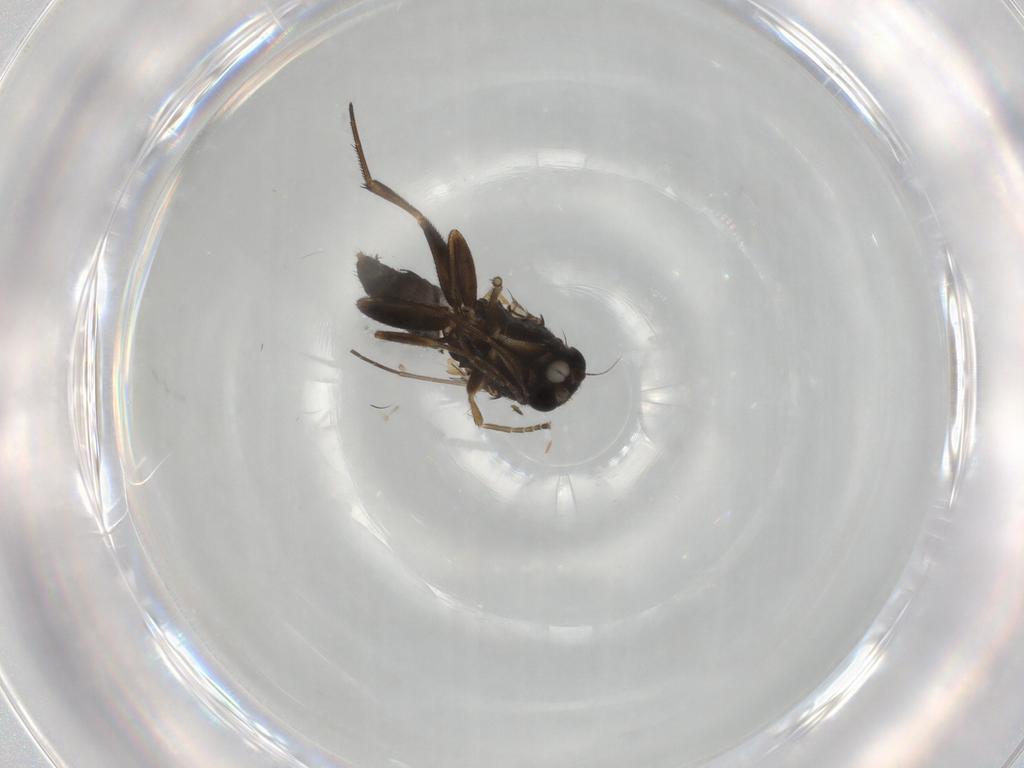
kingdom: Animalia
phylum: Arthropoda
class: Insecta
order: Diptera
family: Phoridae
